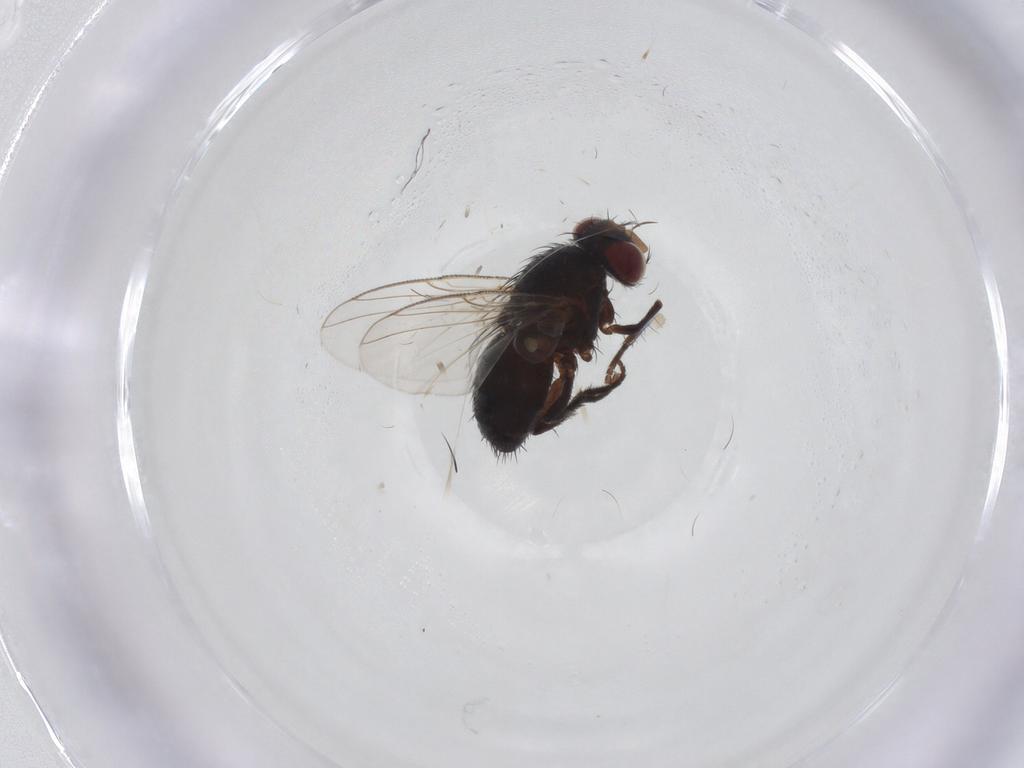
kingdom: Animalia
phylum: Arthropoda
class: Insecta
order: Diptera
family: Tachinidae
